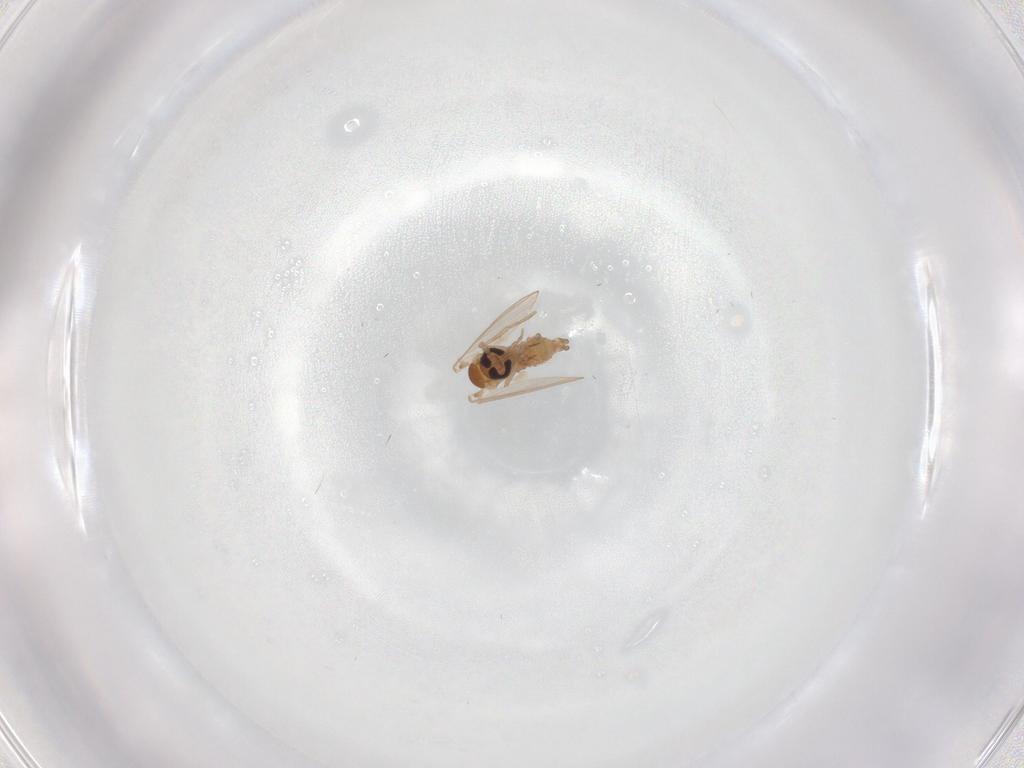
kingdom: Animalia
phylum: Arthropoda
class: Insecta
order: Diptera
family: Psychodidae
